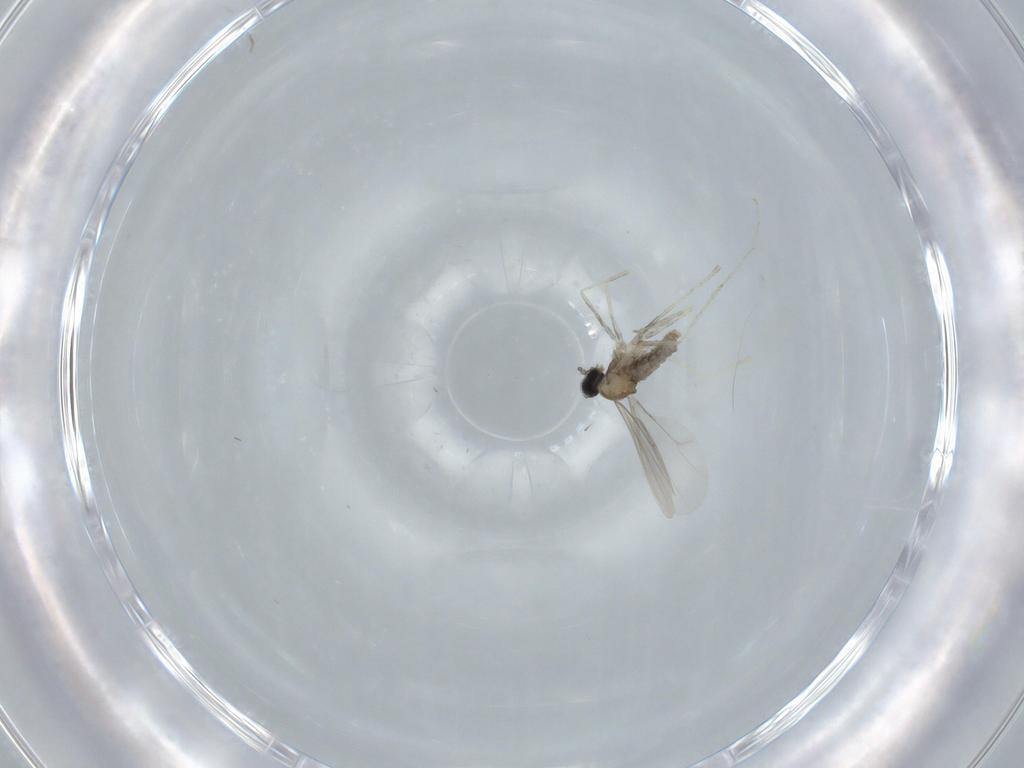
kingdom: Animalia
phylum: Arthropoda
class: Insecta
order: Diptera
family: Cecidomyiidae
